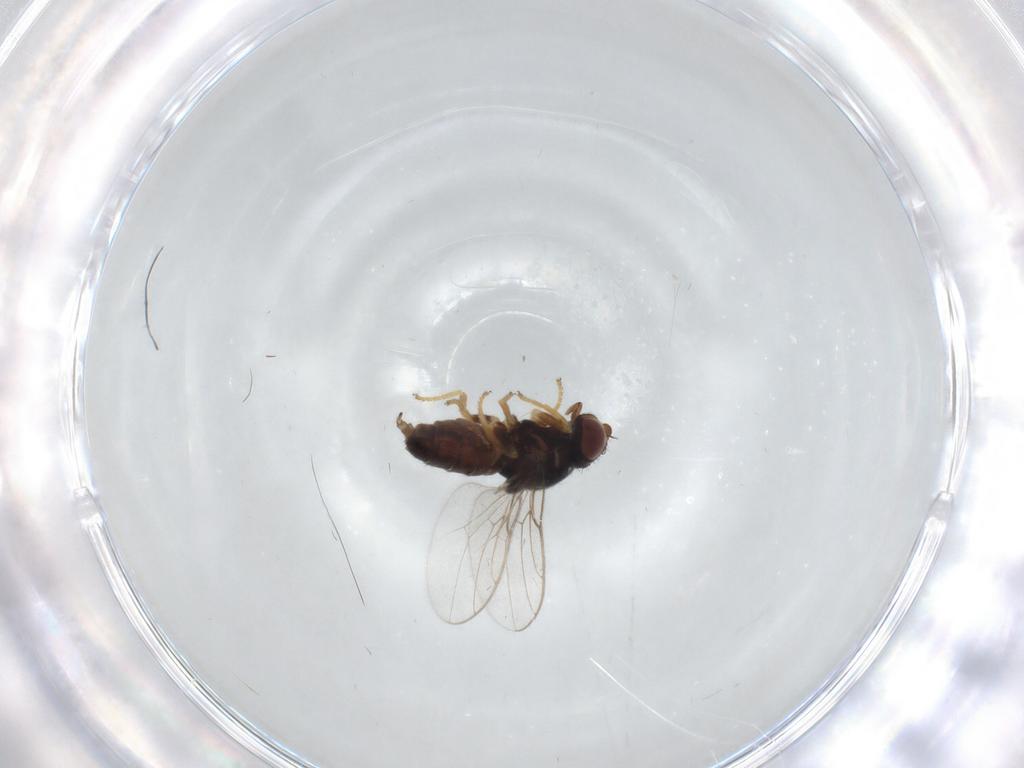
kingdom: Animalia
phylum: Arthropoda
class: Insecta
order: Diptera
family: Chloropidae
